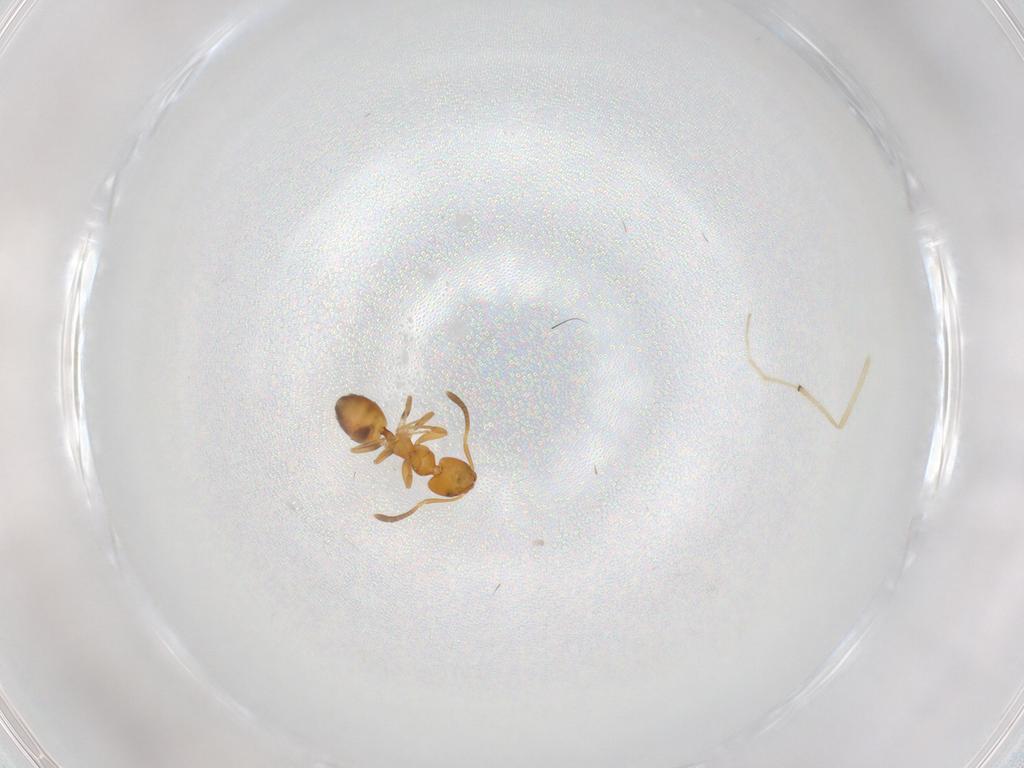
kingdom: Animalia
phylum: Arthropoda
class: Insecta
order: Hymenoptera
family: Formicidae
